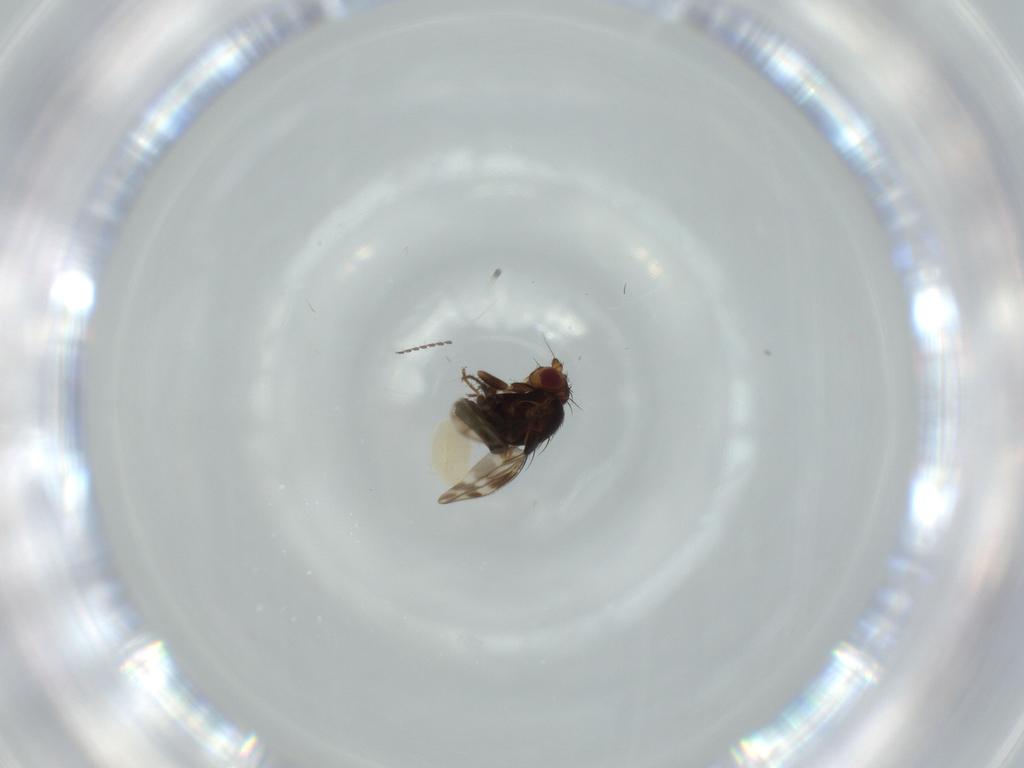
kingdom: Animalia
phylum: Arthropoda
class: Insecta
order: Diptera
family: Sphaeroceridae
